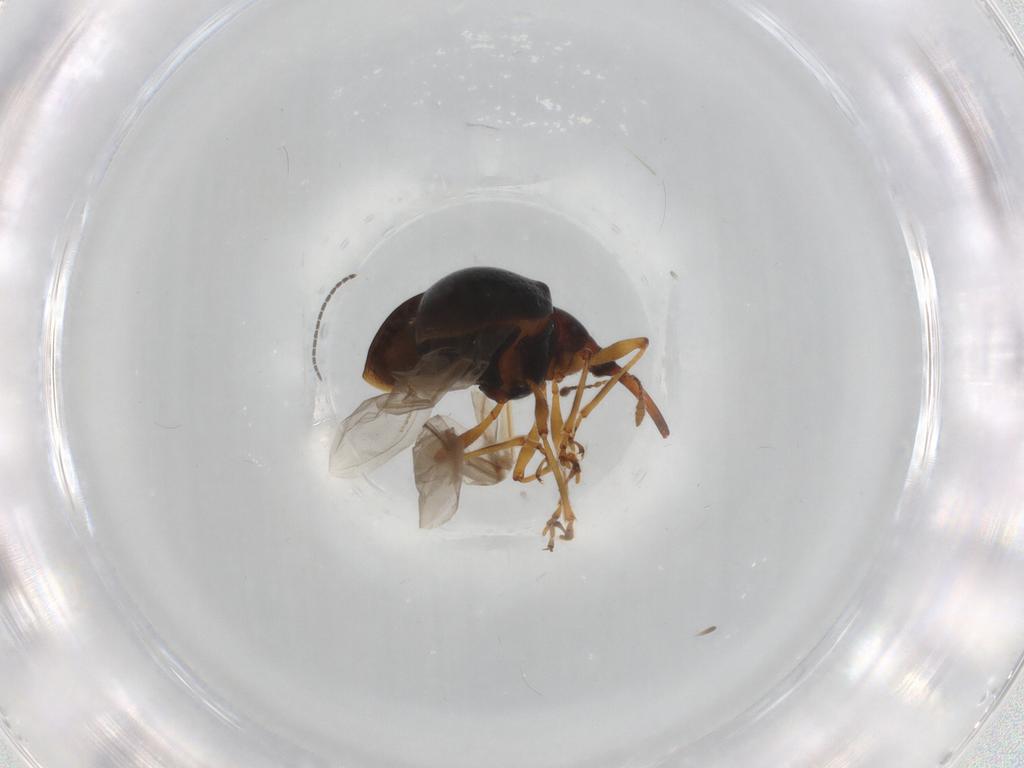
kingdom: Animalia
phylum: Arthropoda
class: Insecta
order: Coleoptera
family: Brentidae
